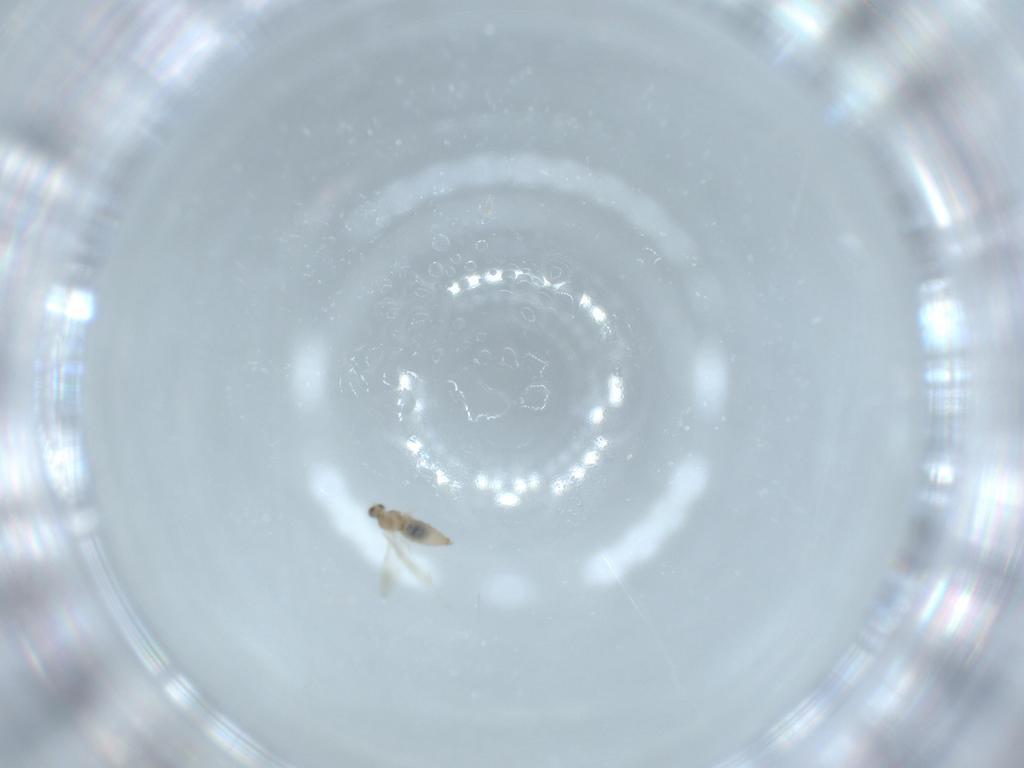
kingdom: Animalia
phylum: Arthropoda
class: Insecta
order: Diptera
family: Cecidomyiidae
